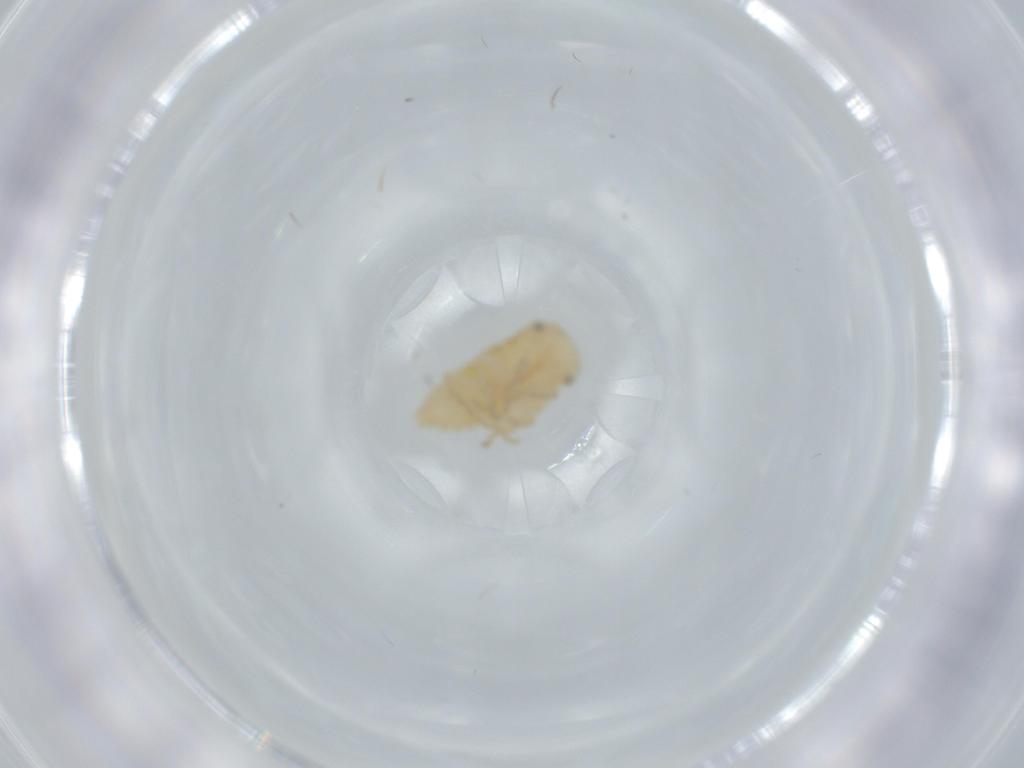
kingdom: Animalia
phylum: Arthropoda
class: Insecta
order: Hemiptera
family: Cicadellidae
